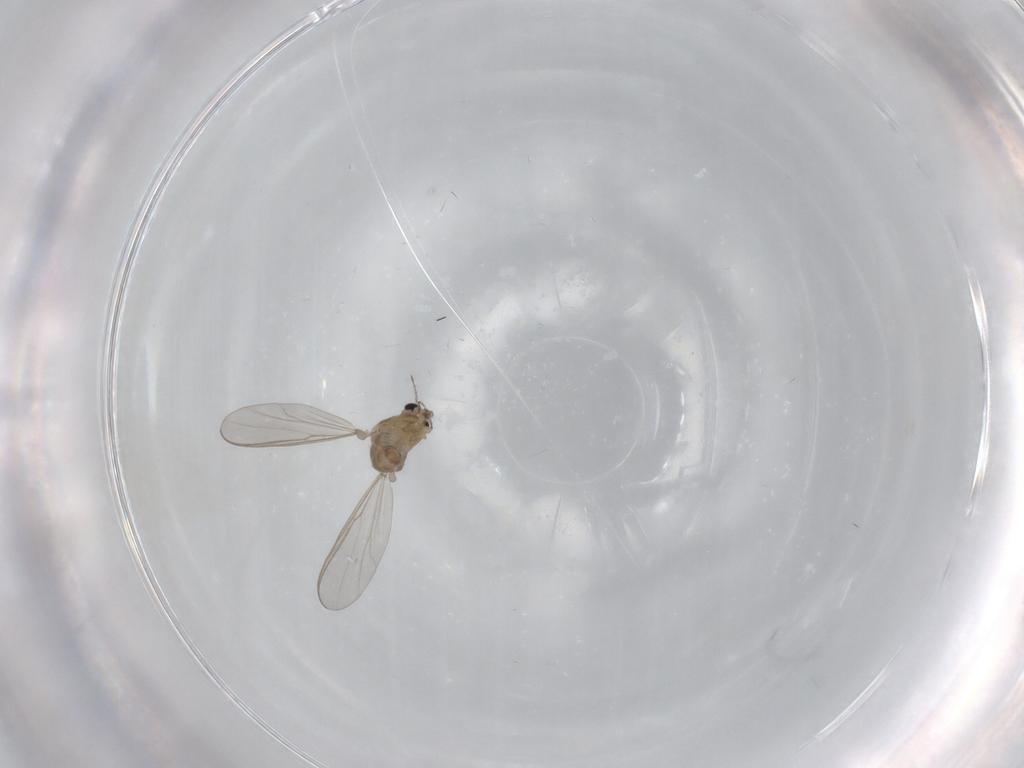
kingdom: Animalia
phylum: Arthropoda
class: Insecta
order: Diptera
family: Chironomidae
